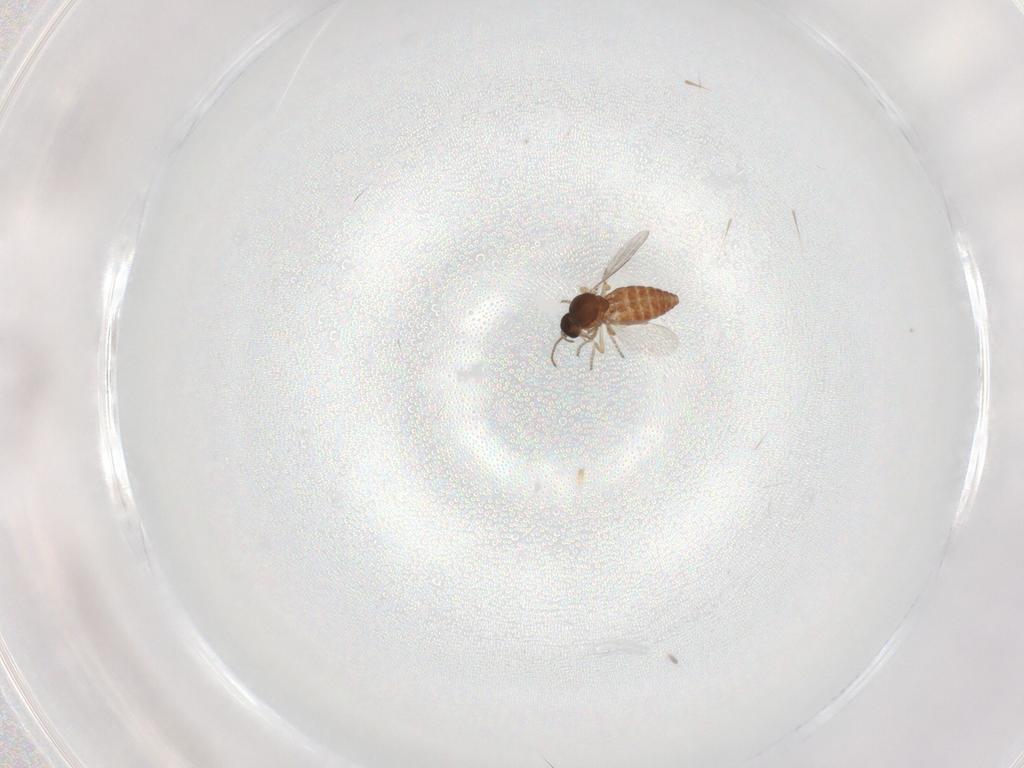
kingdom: Animalia
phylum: Arthropoda
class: Insecta
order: Diptera
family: Ceratopogonidae
